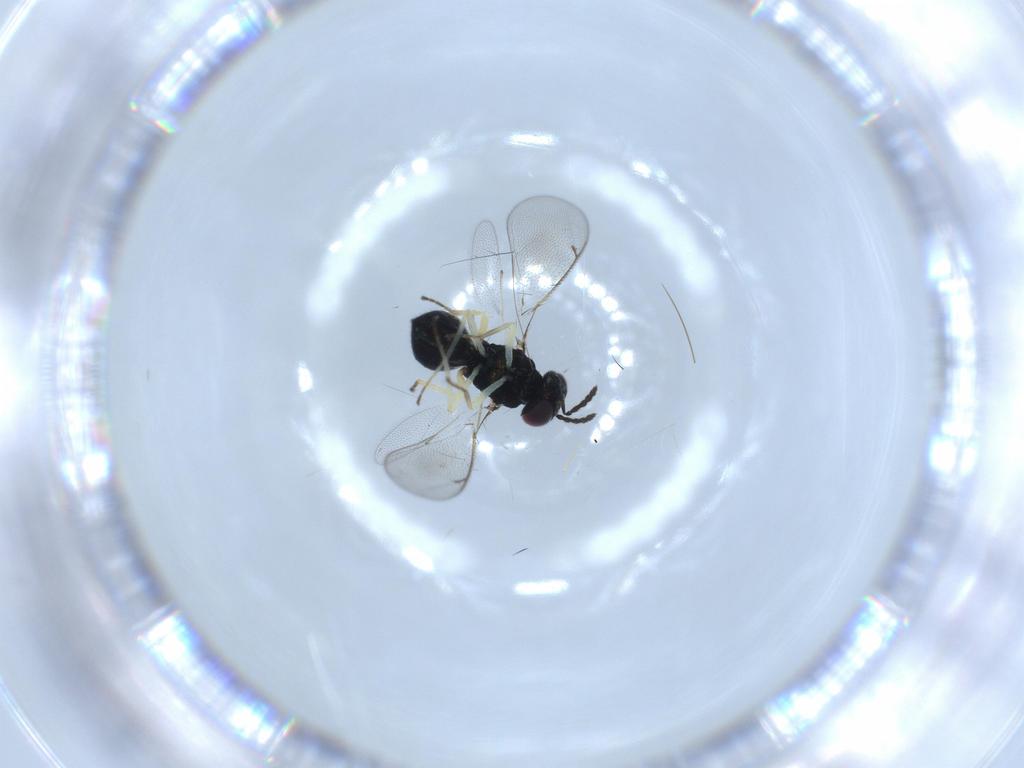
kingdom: Animalia
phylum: Arthropoda
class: Insecta
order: Hymenoptera
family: Eulophidae
